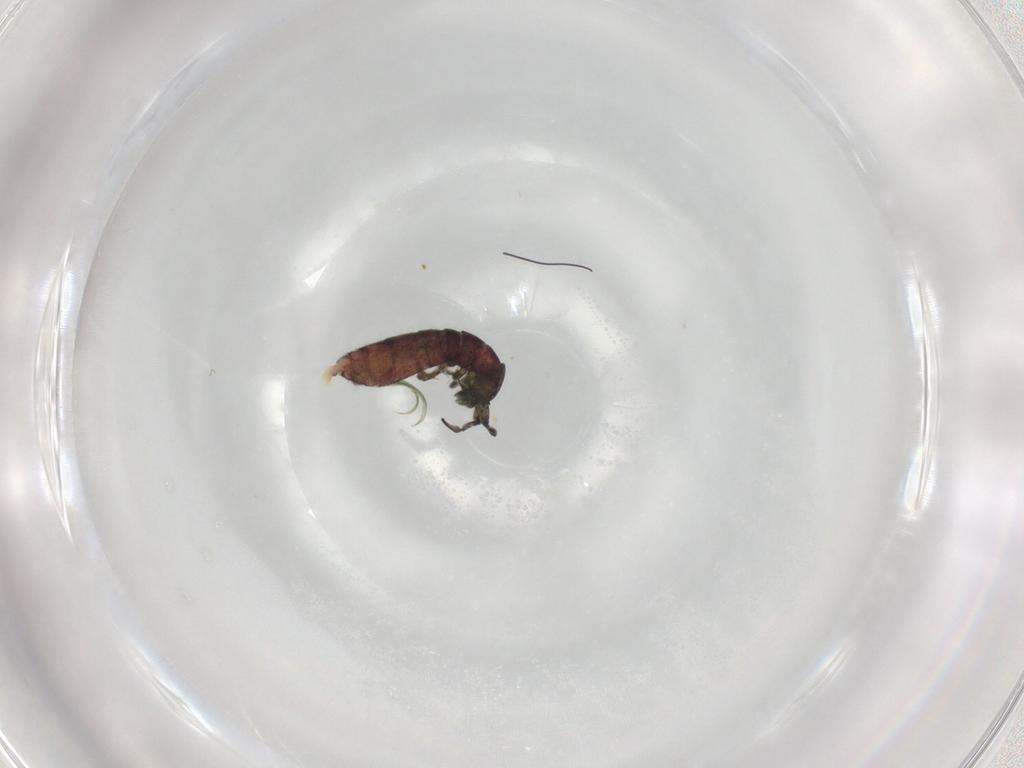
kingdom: Animalia
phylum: Arthropoda
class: Collembola
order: Entomobryomorpha
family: Isotomidae
